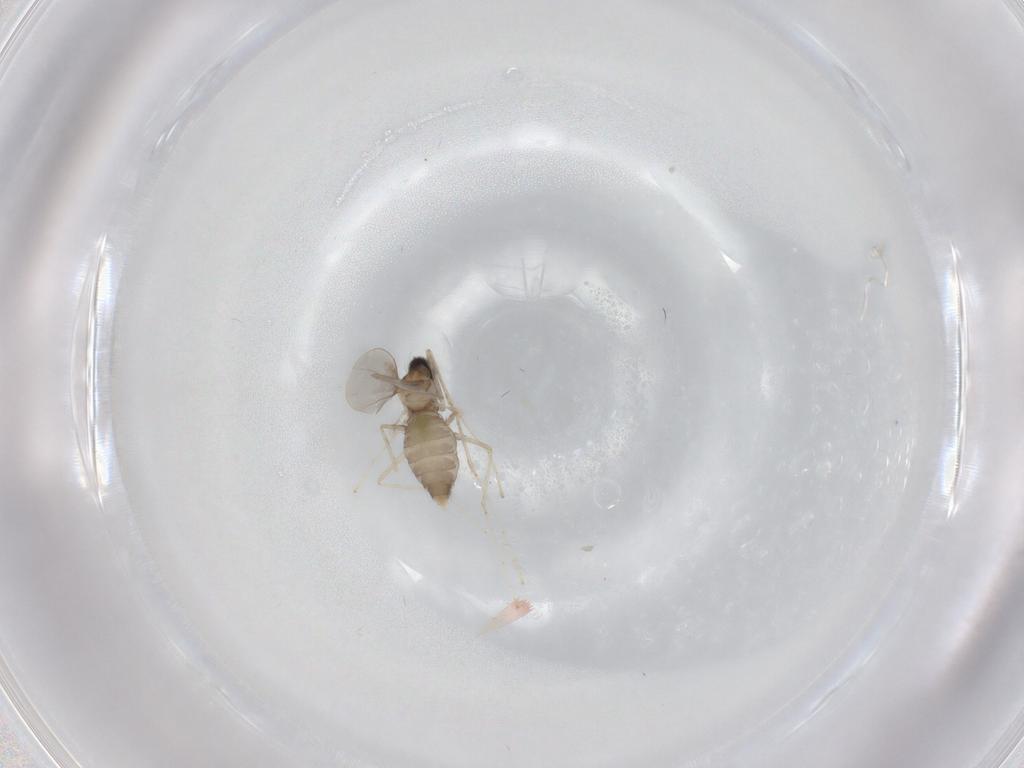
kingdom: Animalia
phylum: Arthropoda
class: Insecta
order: Diptera
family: Cecidomyiidae
